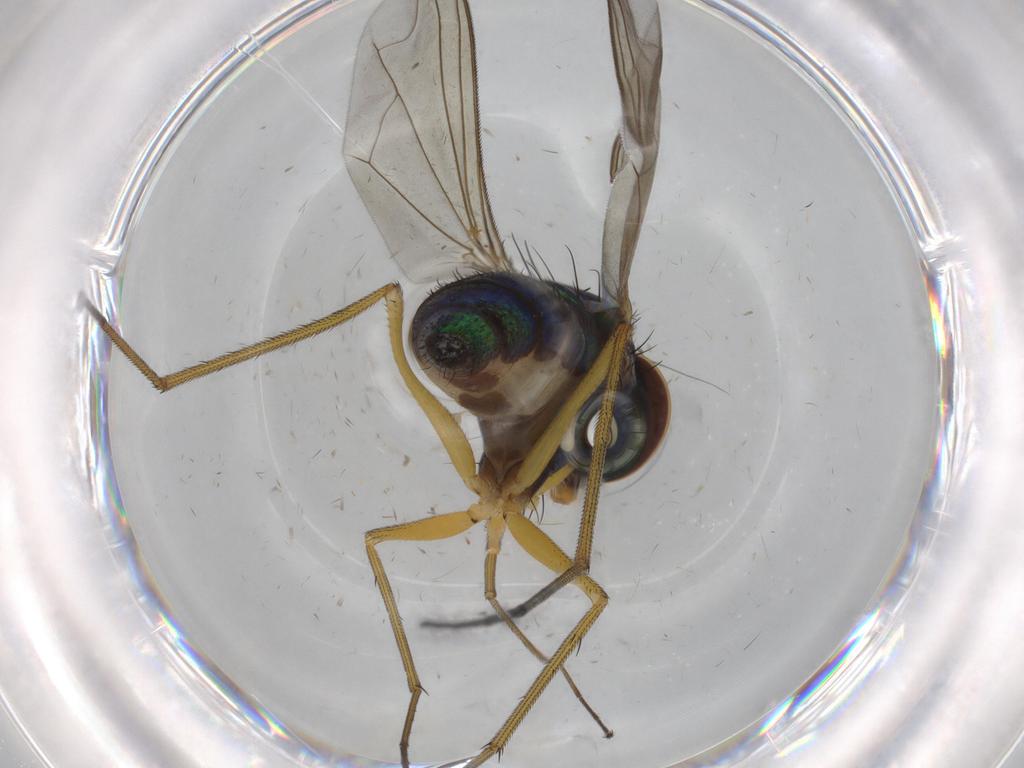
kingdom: Animalia
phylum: Arthropoda
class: Insecta
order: Diptera
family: Dolichopodidae
